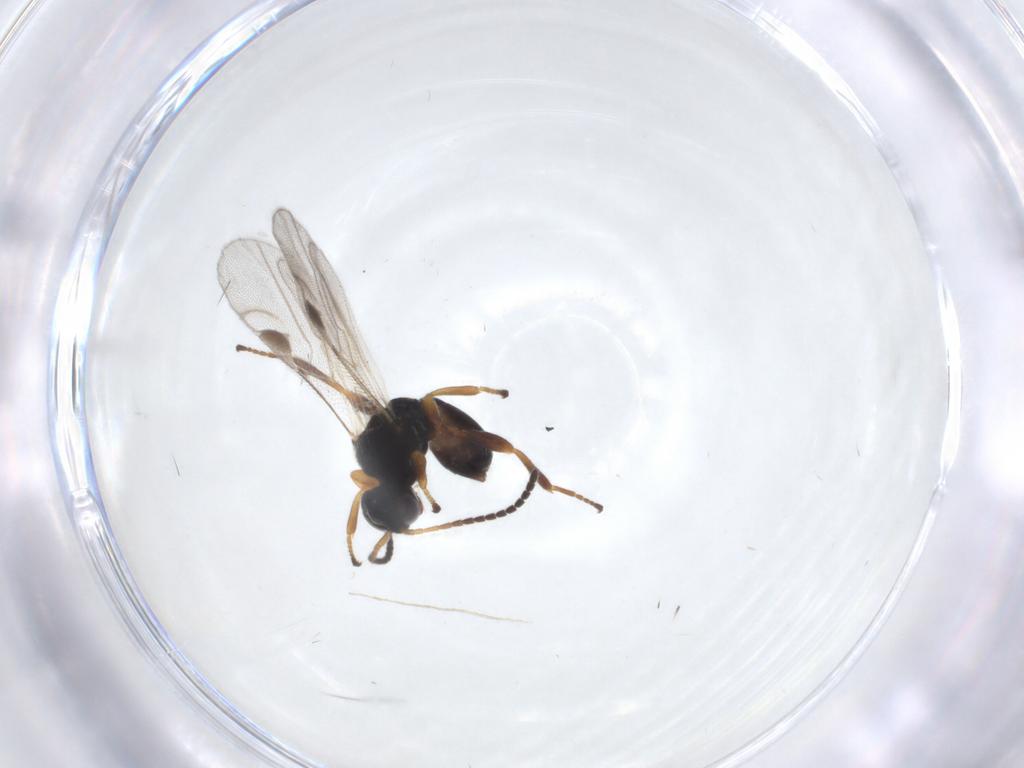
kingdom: Animalia
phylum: Arthropoda
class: Insecta
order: Hymenoptera
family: Braconidae
